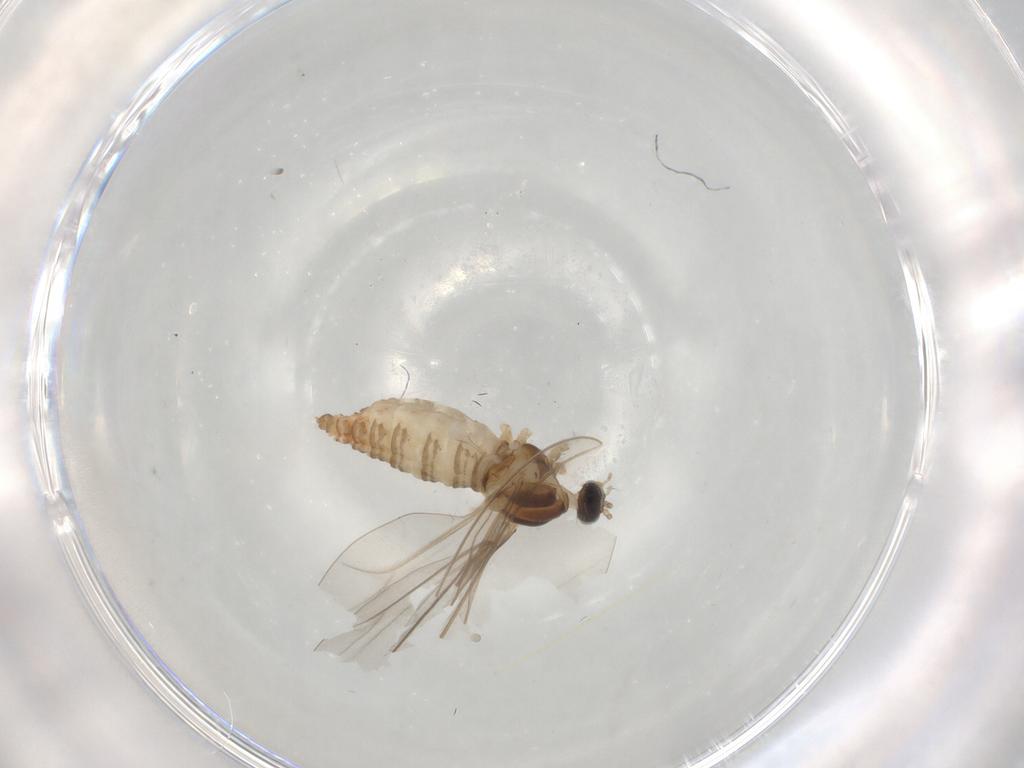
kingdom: Animalia
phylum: Arthropoda
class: Insecta
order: Diptera
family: Cecidomyiidae
